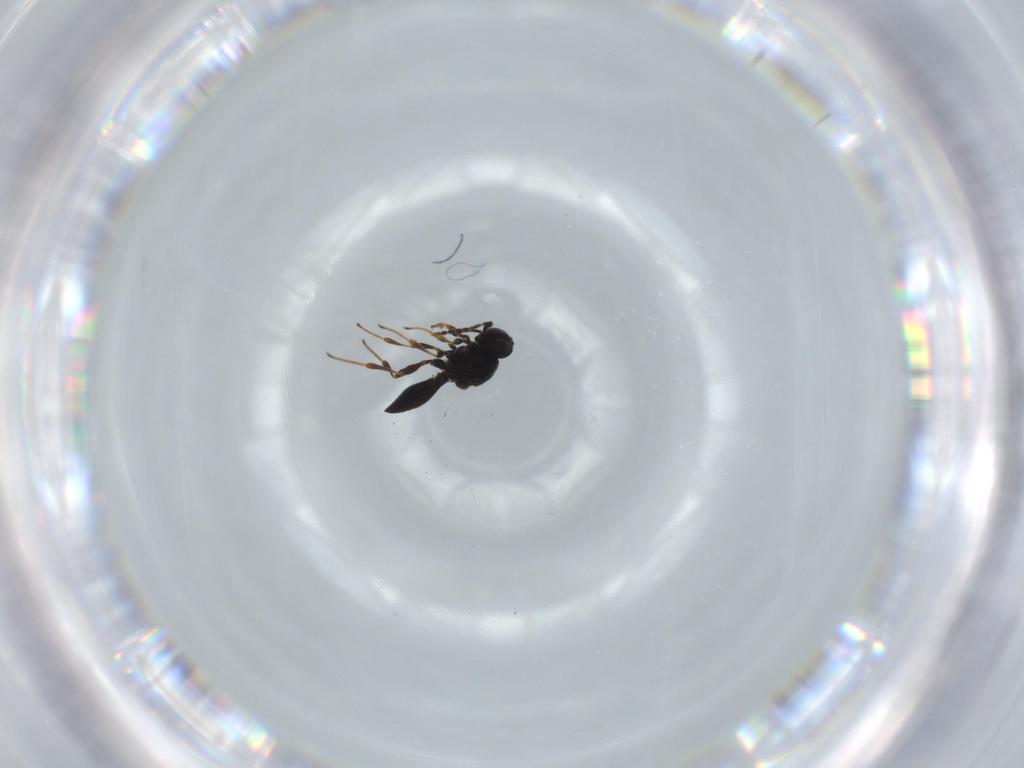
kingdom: Animalia
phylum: Arthropoda
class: Insecta
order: Hymenoptera
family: Platygastridae
